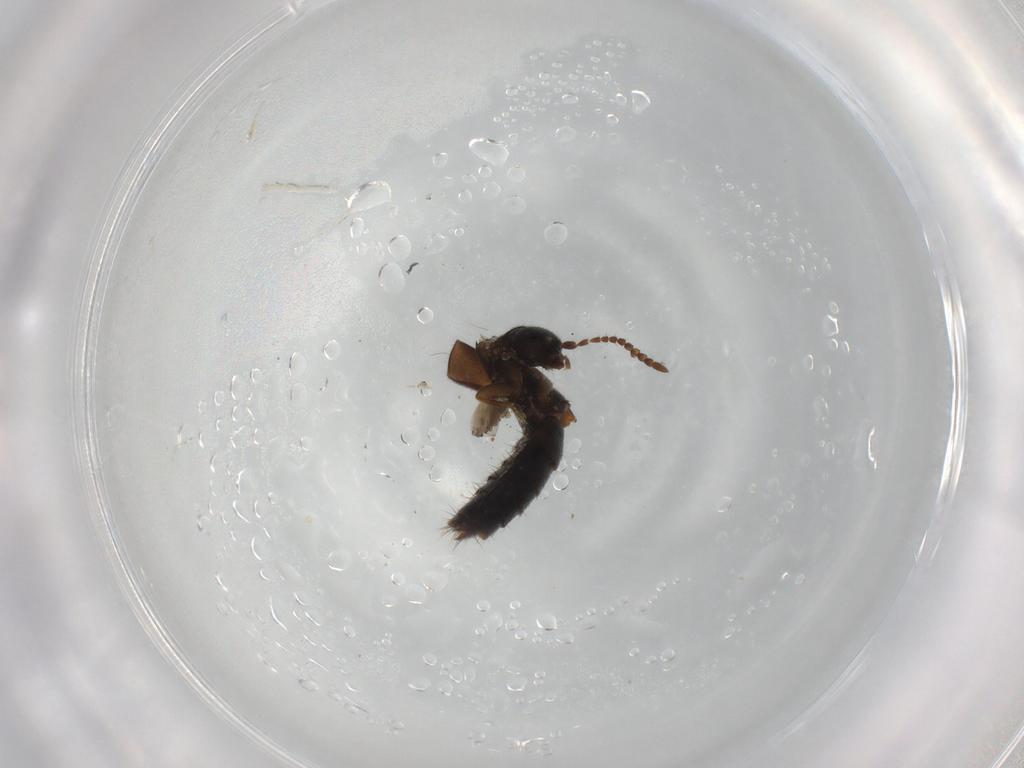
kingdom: Animalia
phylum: Arthropoda
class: Insecta
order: Coleoptera
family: Staphylinidae
